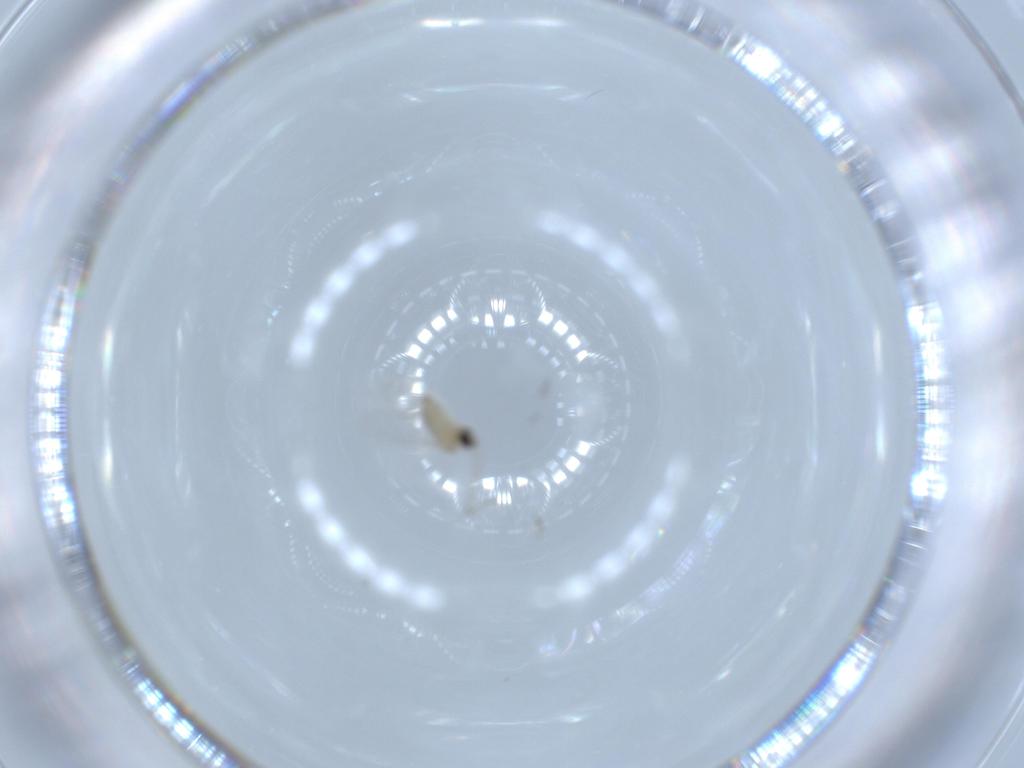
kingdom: Animalia
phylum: Arthropoda
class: Insecta
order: Diptera
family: Cecidomyiidae
